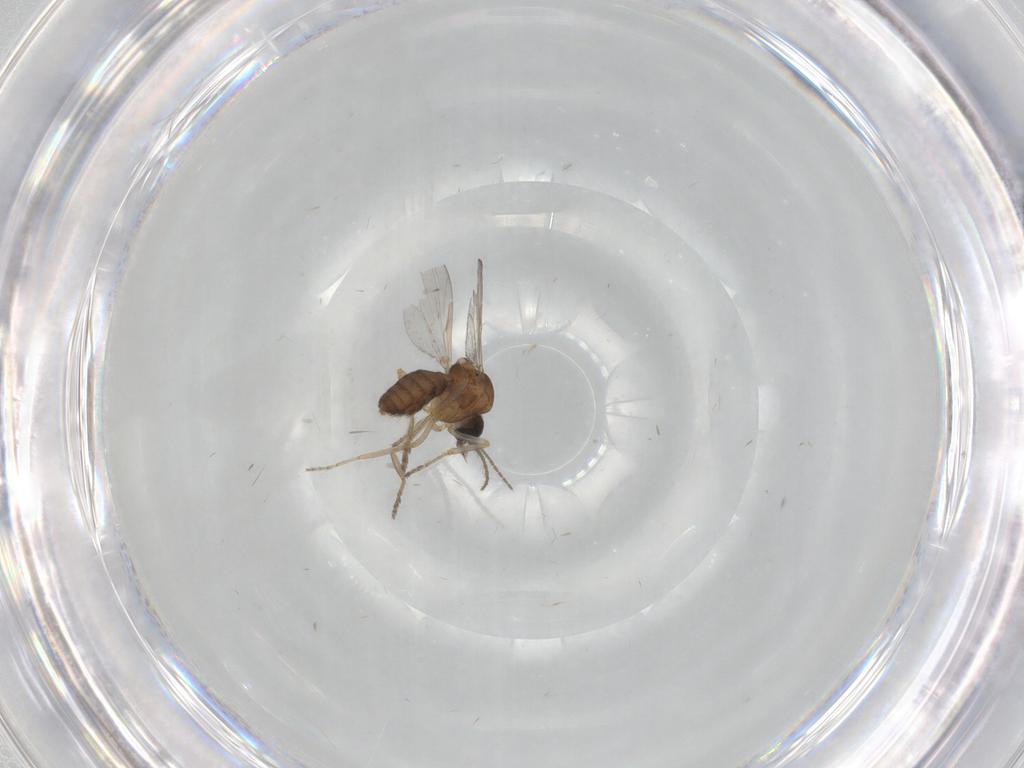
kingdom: Animalia
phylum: Arthropoda
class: Insecta
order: Diptera
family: Ceratopogonidae
